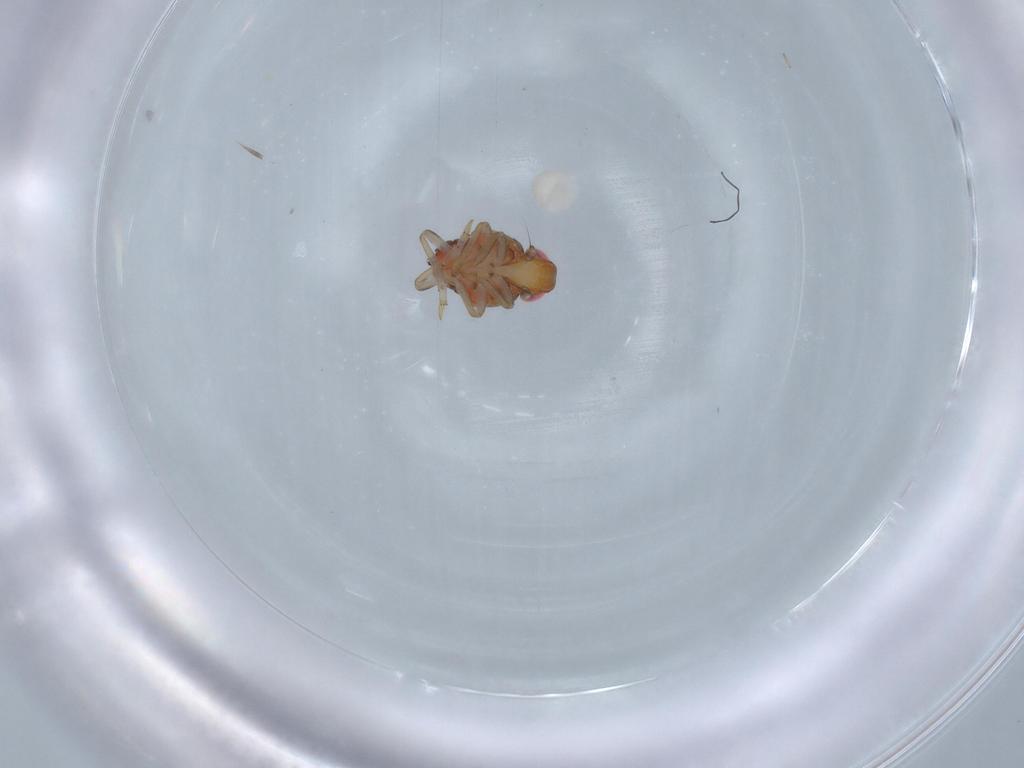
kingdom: Animalia
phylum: Arthropoda
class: Insecta
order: Hemiptera
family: Issidae
